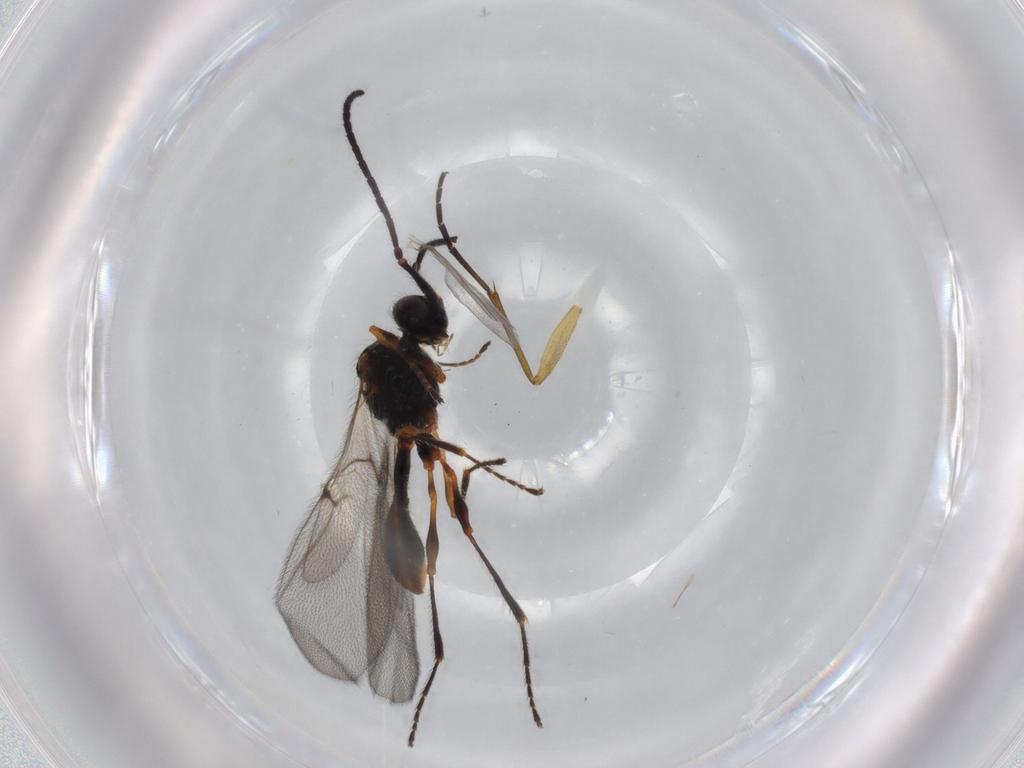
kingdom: Animalia
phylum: Arthropoda
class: Insecta
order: Hymenoptera
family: Diapriidae
